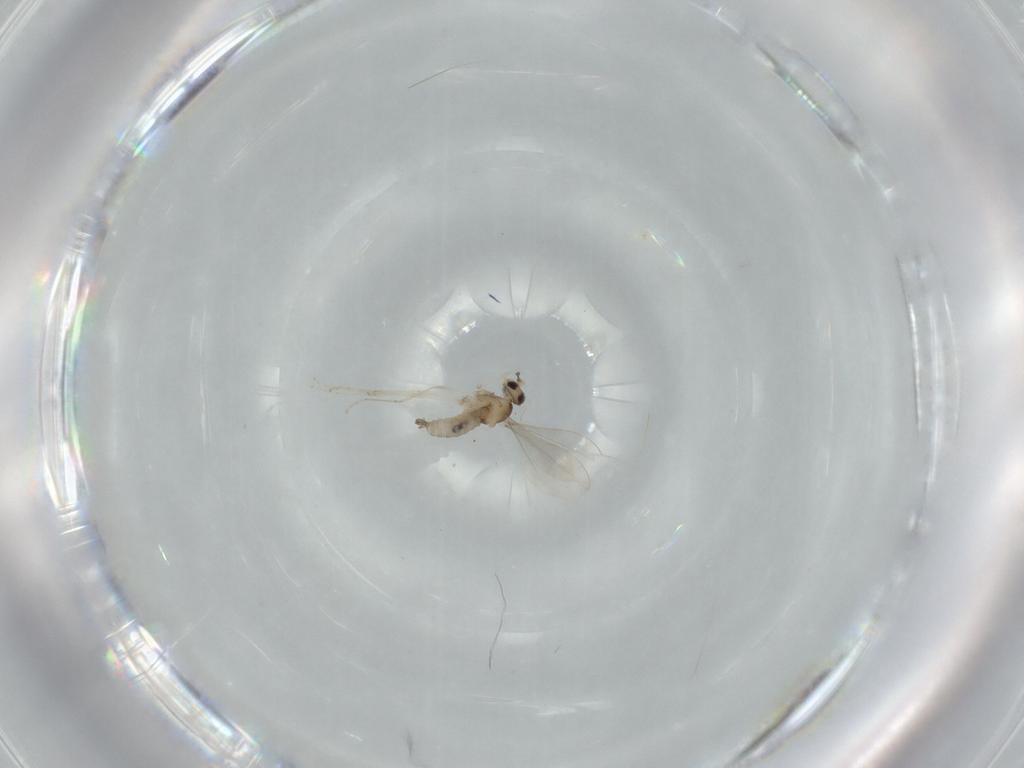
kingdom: Animalia
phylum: Arthropoda
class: Insecta
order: Diptera
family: Cecidomyiidae
